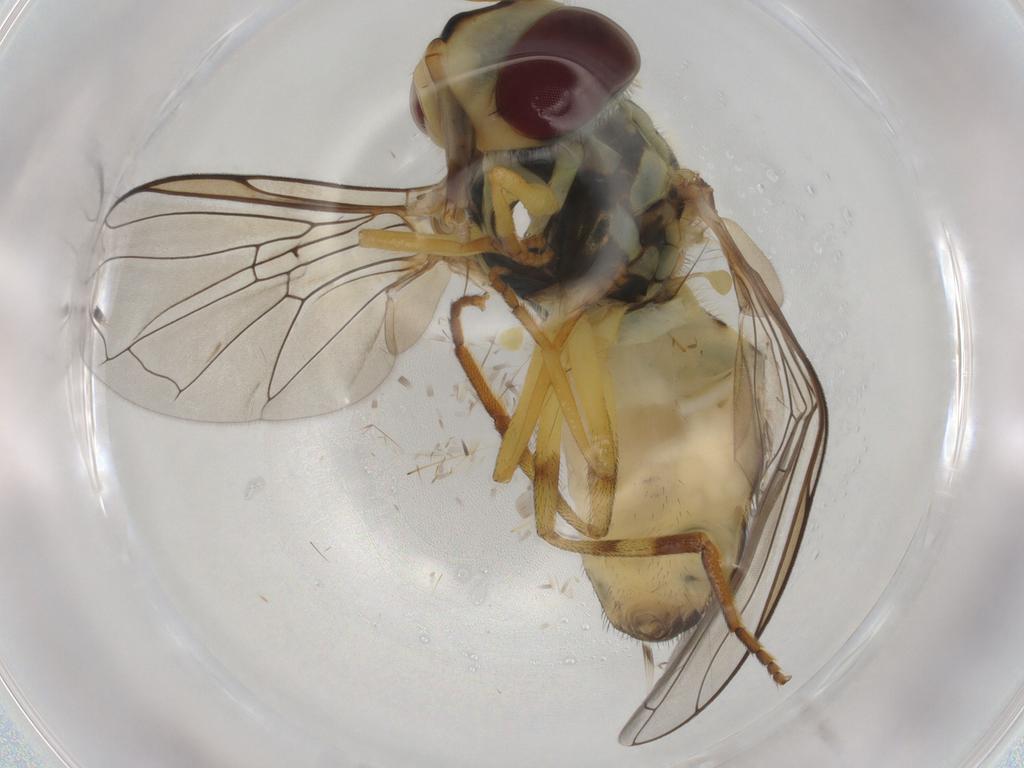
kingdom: Animalia
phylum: Arthropoda
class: Insecta
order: Diptera
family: Syrphidae
